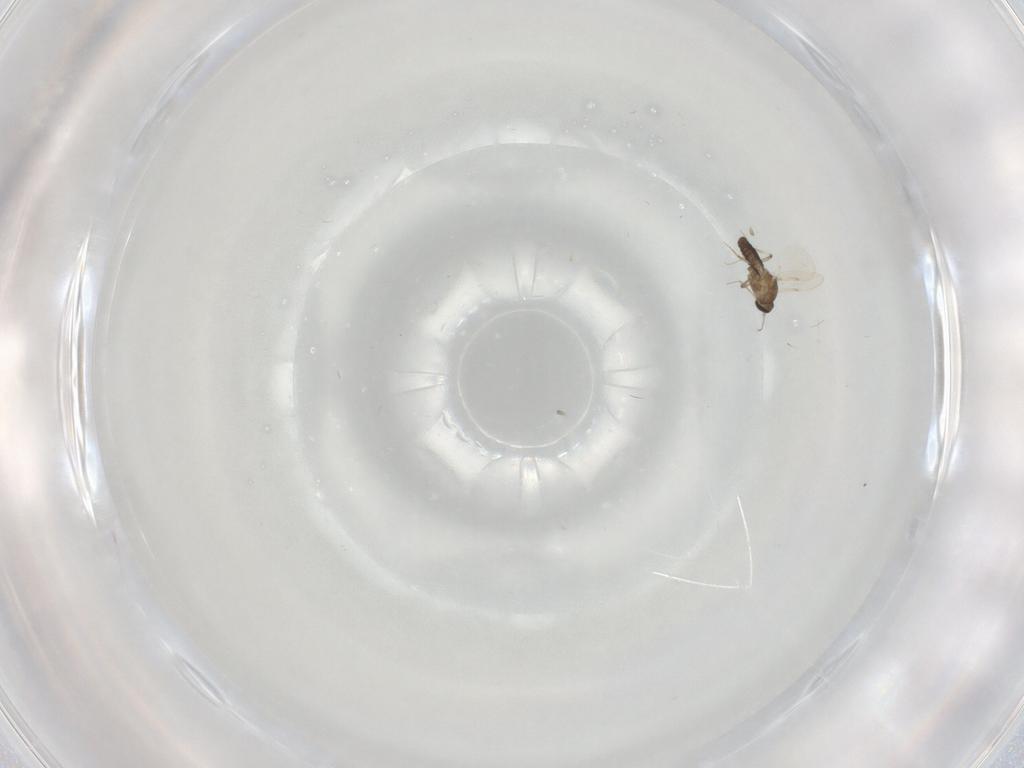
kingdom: Animalia
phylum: Arthropoda
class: Insecta
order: Diptera
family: Ceratopogonidae
